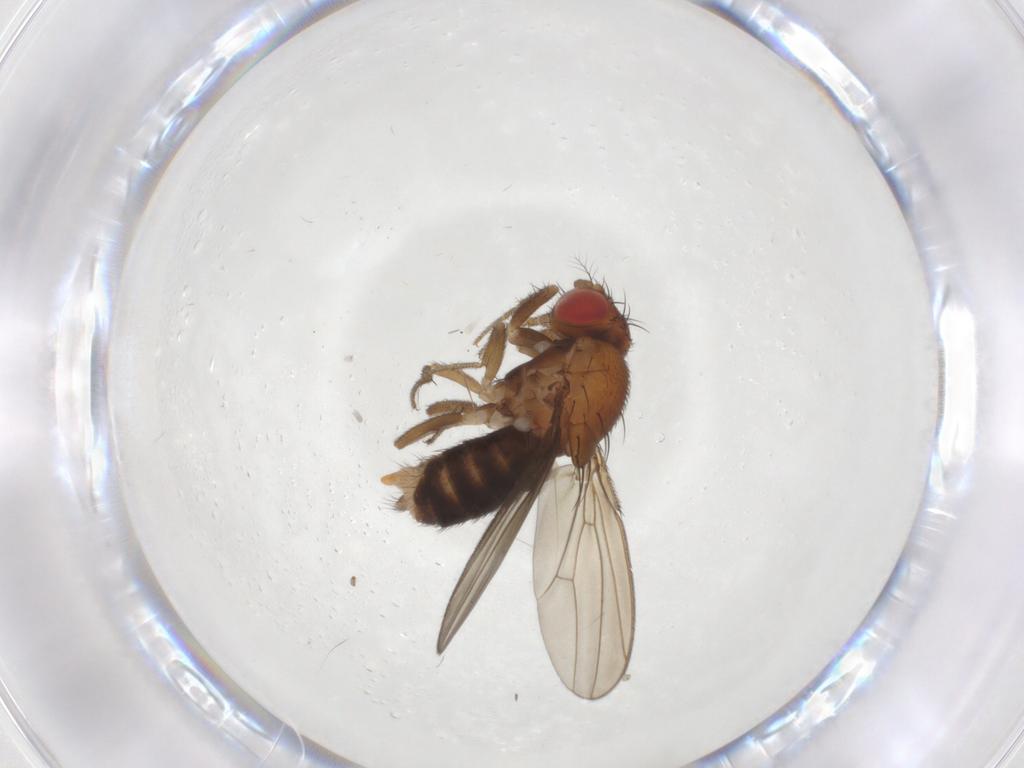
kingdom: Animalia
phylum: Arthropoda
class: Insecta
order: Diptera
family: Drosophilidae
